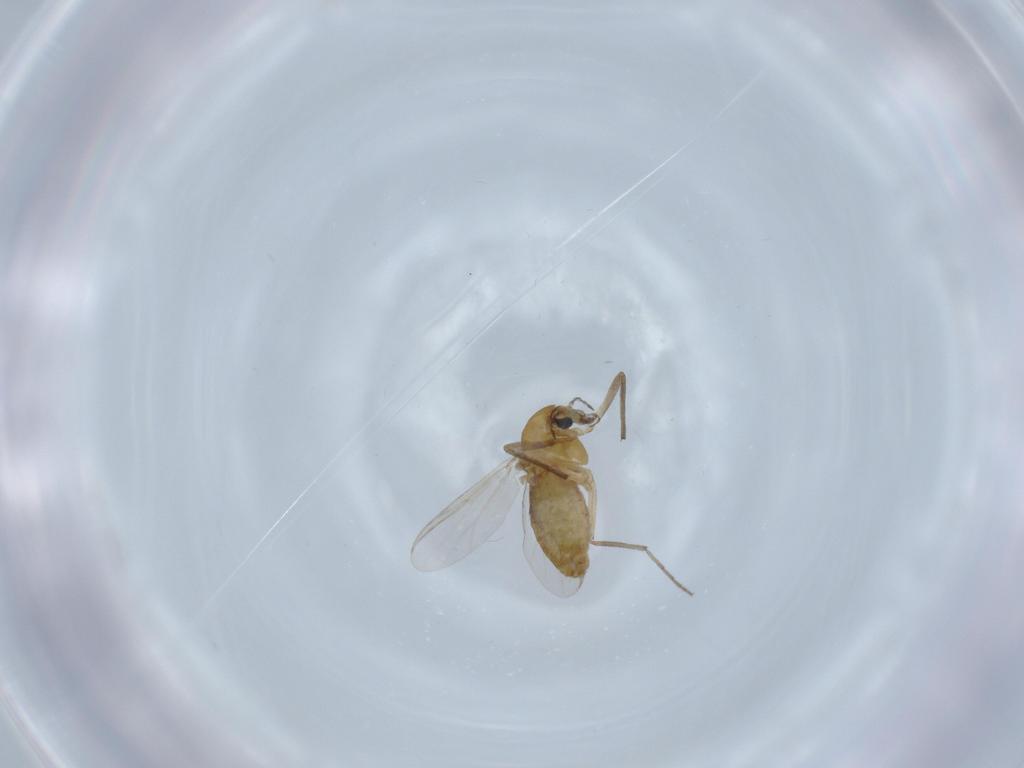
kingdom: Animalia
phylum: Arthropoda
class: Insecta
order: Diptera
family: Chironomidae
